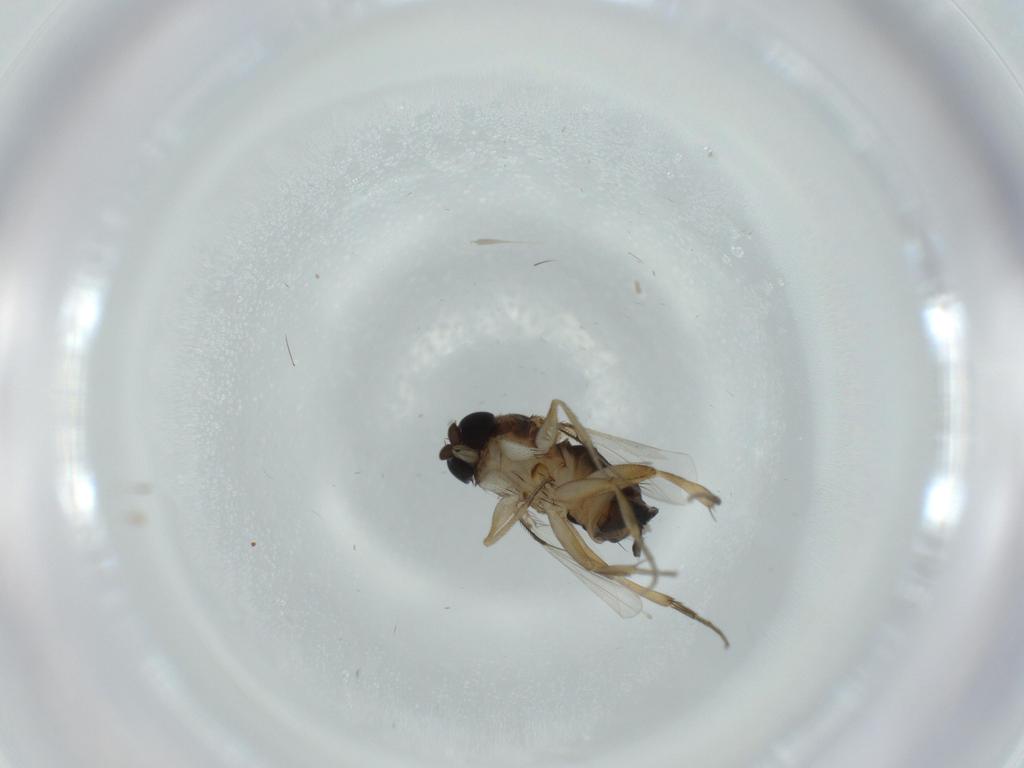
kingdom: Animalia
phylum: Arthropoda
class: Insecta
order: Diptera
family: Phoridae
